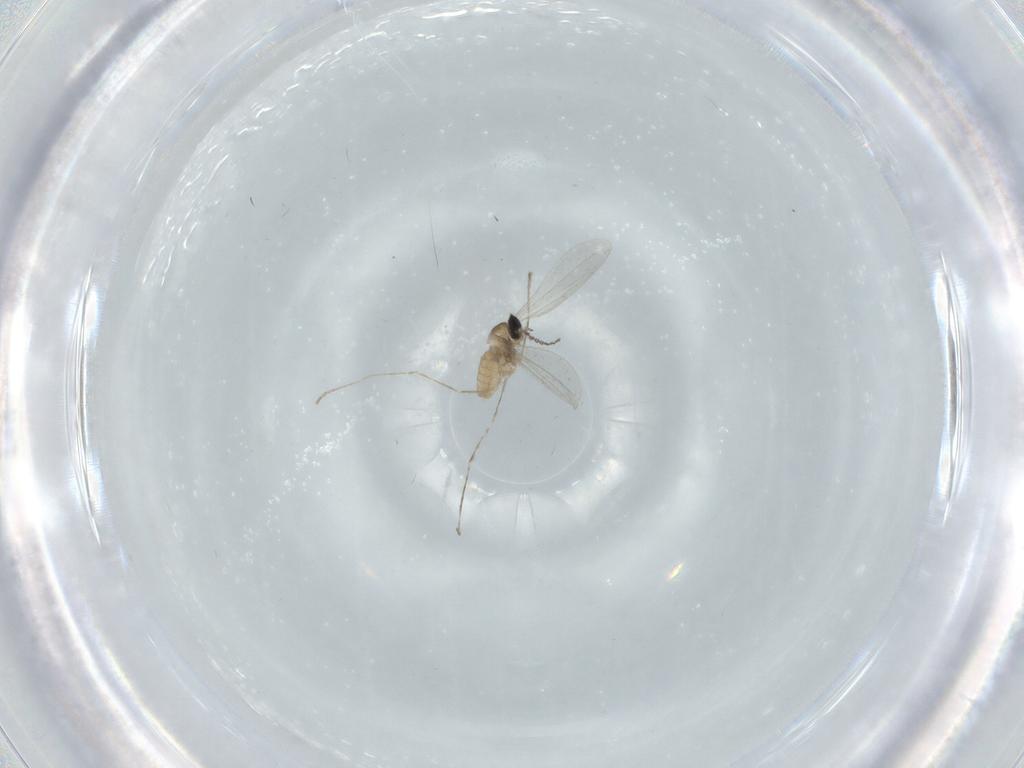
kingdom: Animalia
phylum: Arthropoda
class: Insecta
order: Diptera
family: Cecidomyiidae
